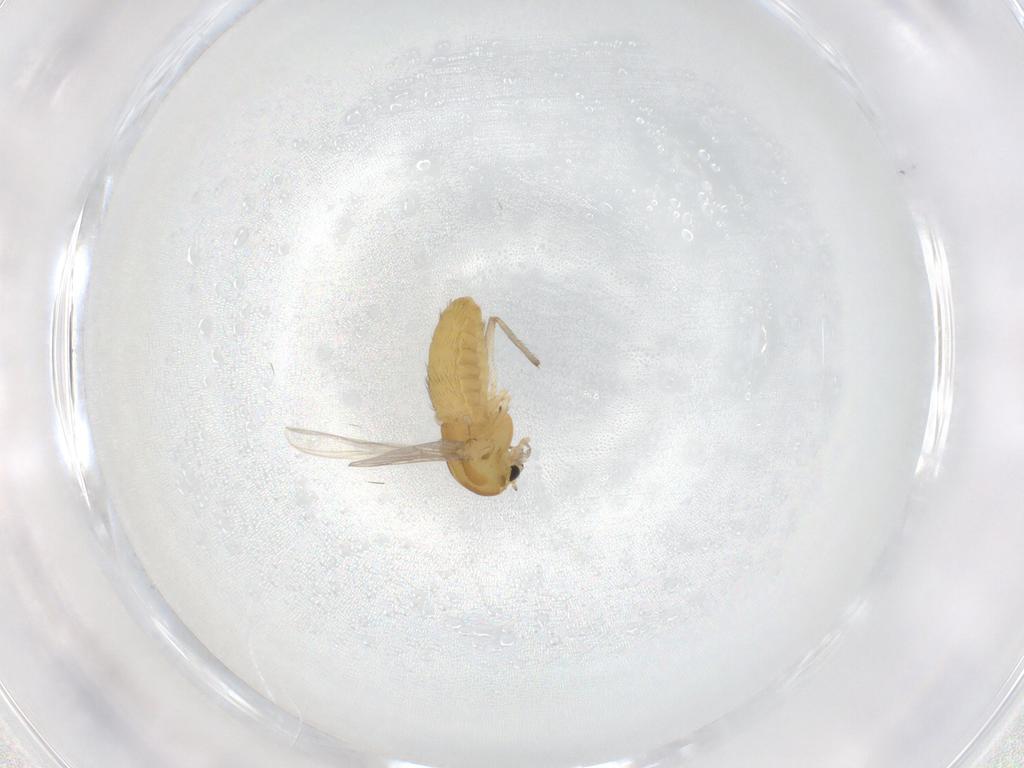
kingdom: Animalia
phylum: Arthropoda
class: Insecta
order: Diptera
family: Chironomidae
